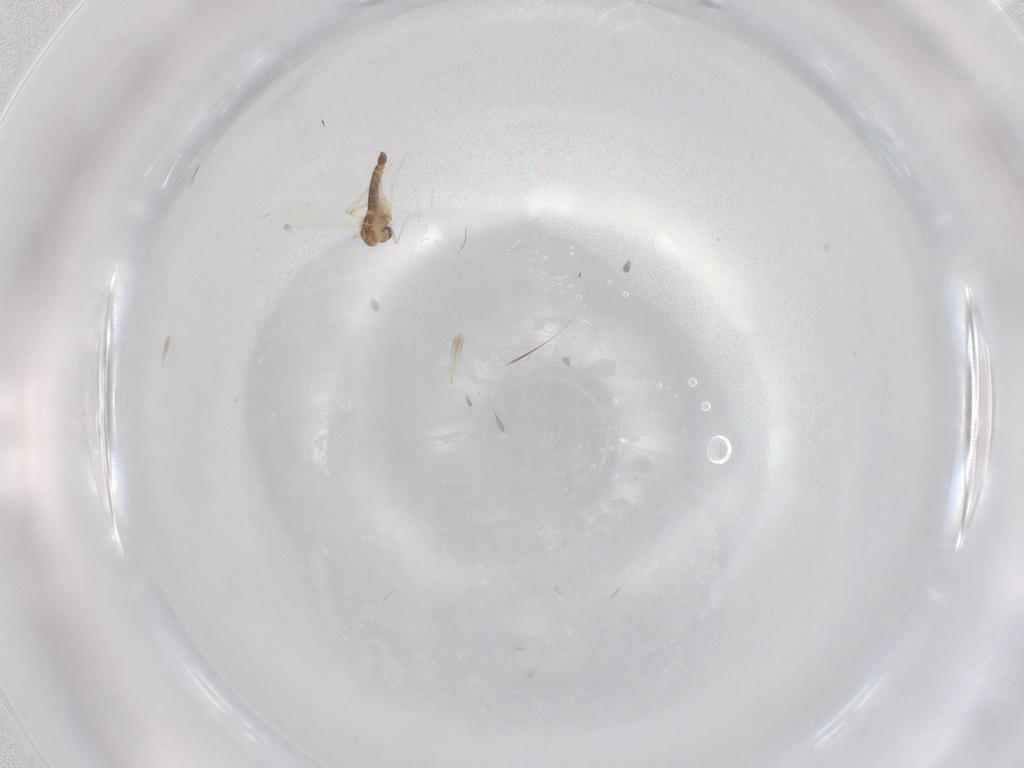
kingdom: Animalia
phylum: Arthropoda
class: Insecta
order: Diptera
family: Chironomidae
